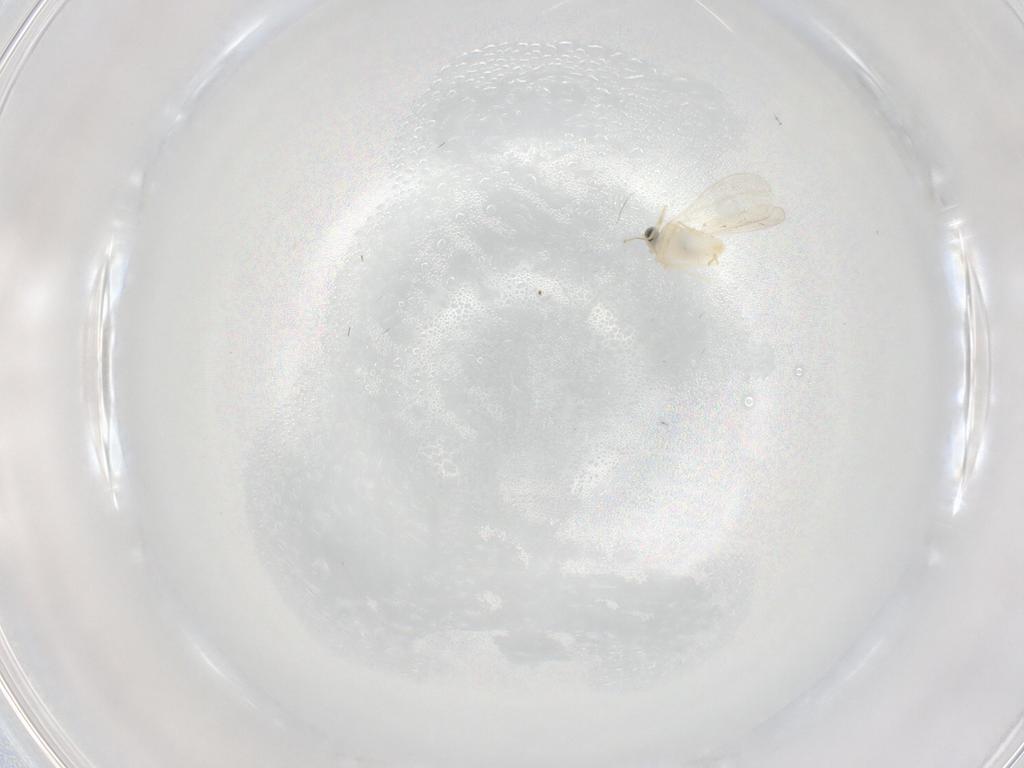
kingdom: Animalia
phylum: Arthropoda
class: Insecta
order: Diptera
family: Cecidomyiidae
